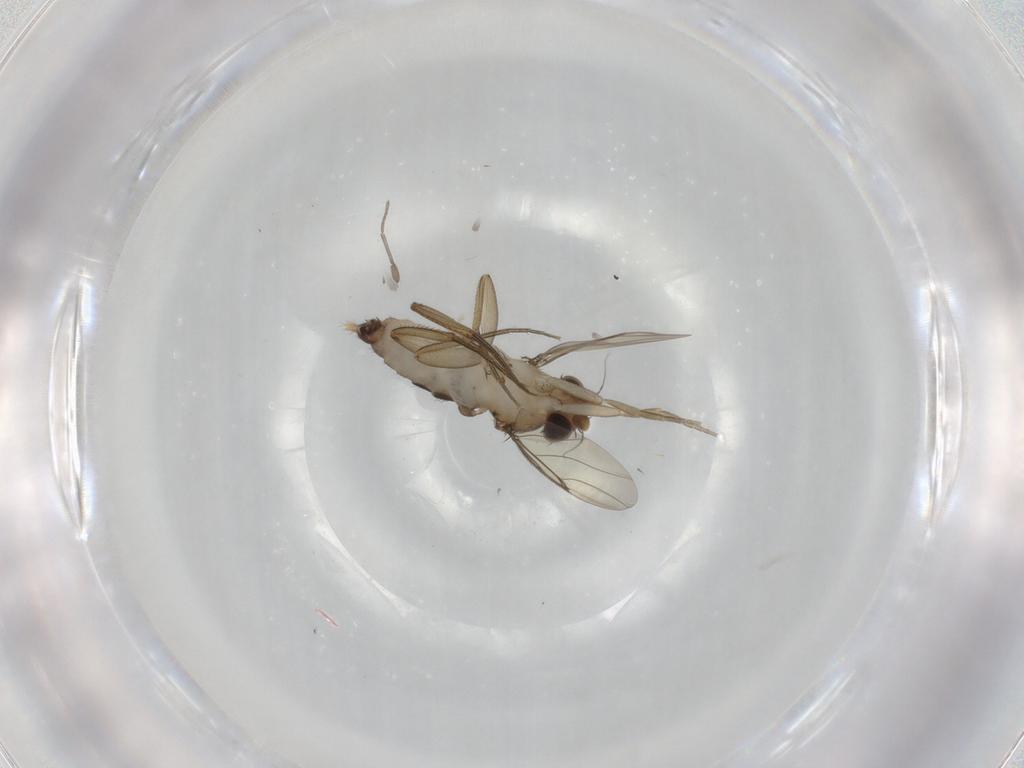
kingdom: Animalia
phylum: Arthropoda
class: Insecta
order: Diptera
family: Phoridae
